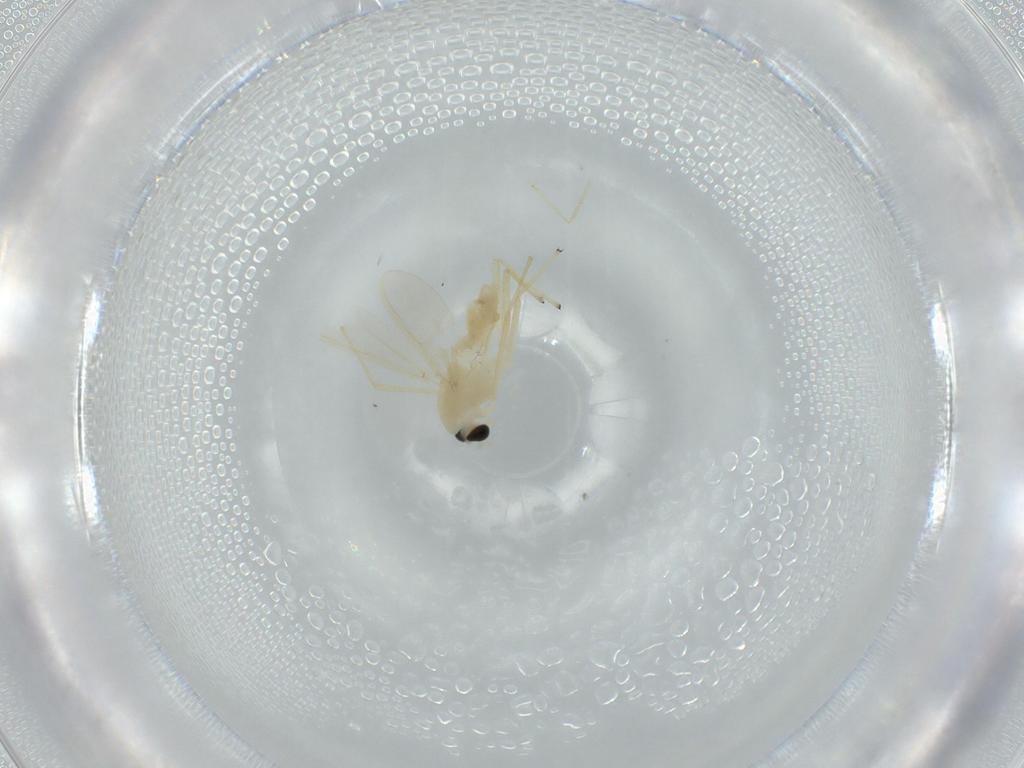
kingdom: Animalia
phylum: Arthropoda
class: Insecta
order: Diptera
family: Chironomidae
